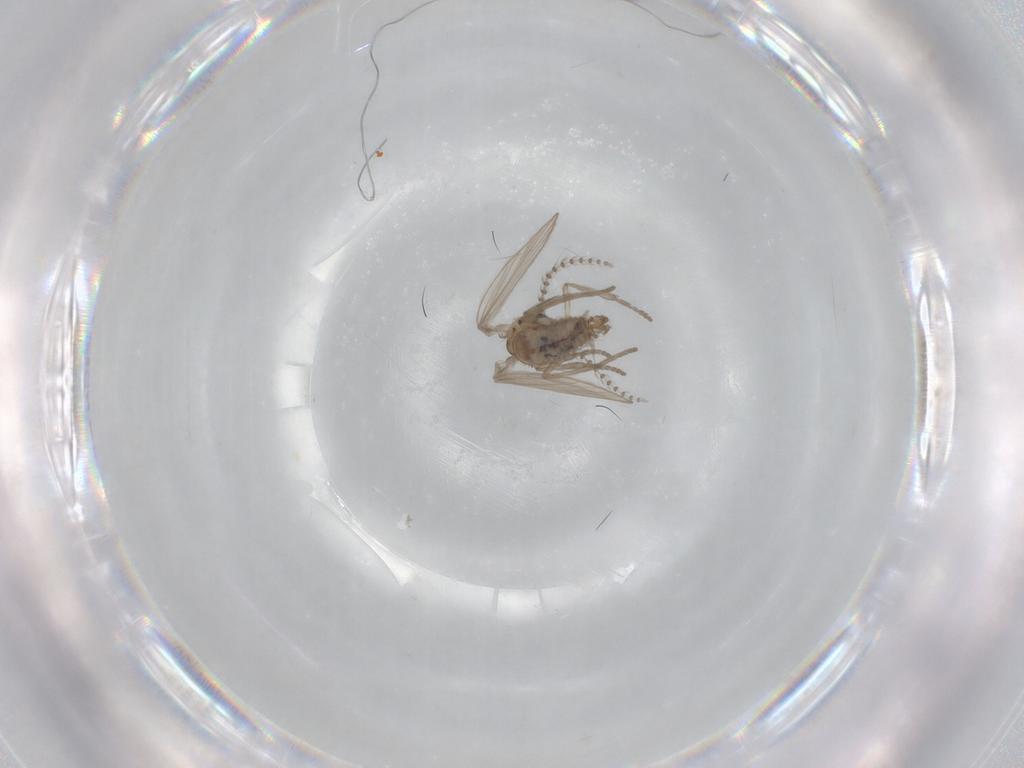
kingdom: Animalia
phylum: Arthropoda
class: Insecta
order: Diptera
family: Psychodidae
